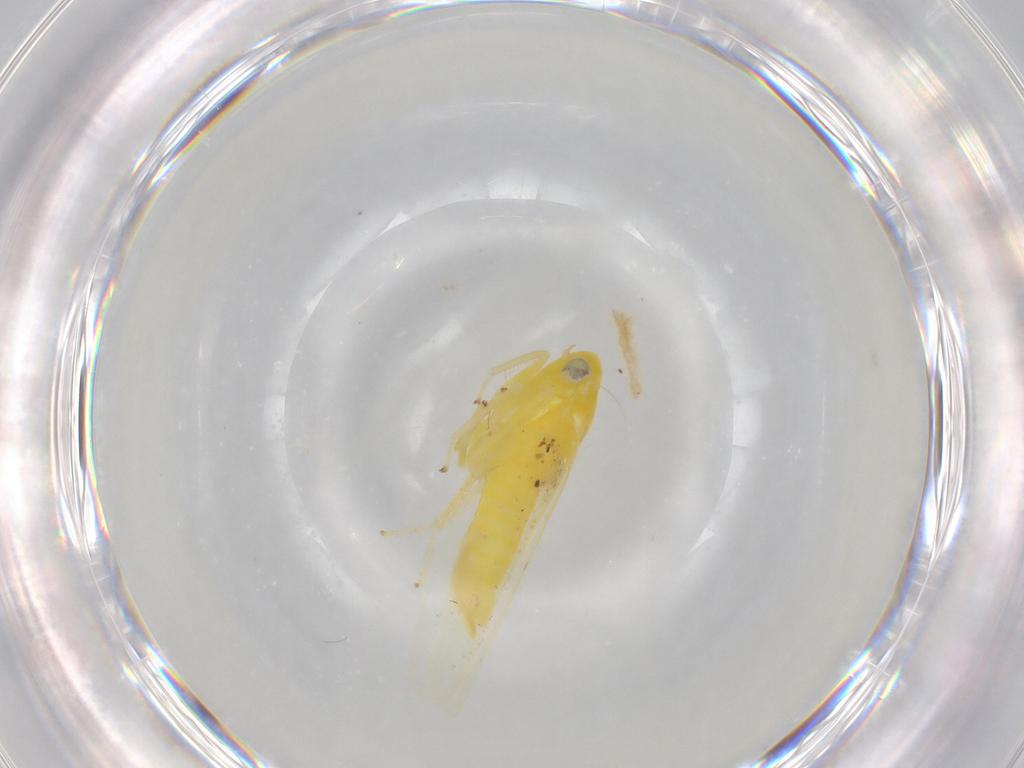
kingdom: Animalia
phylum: Arthropoda
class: Insecta
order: Hemiptera
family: Cicadellidae
